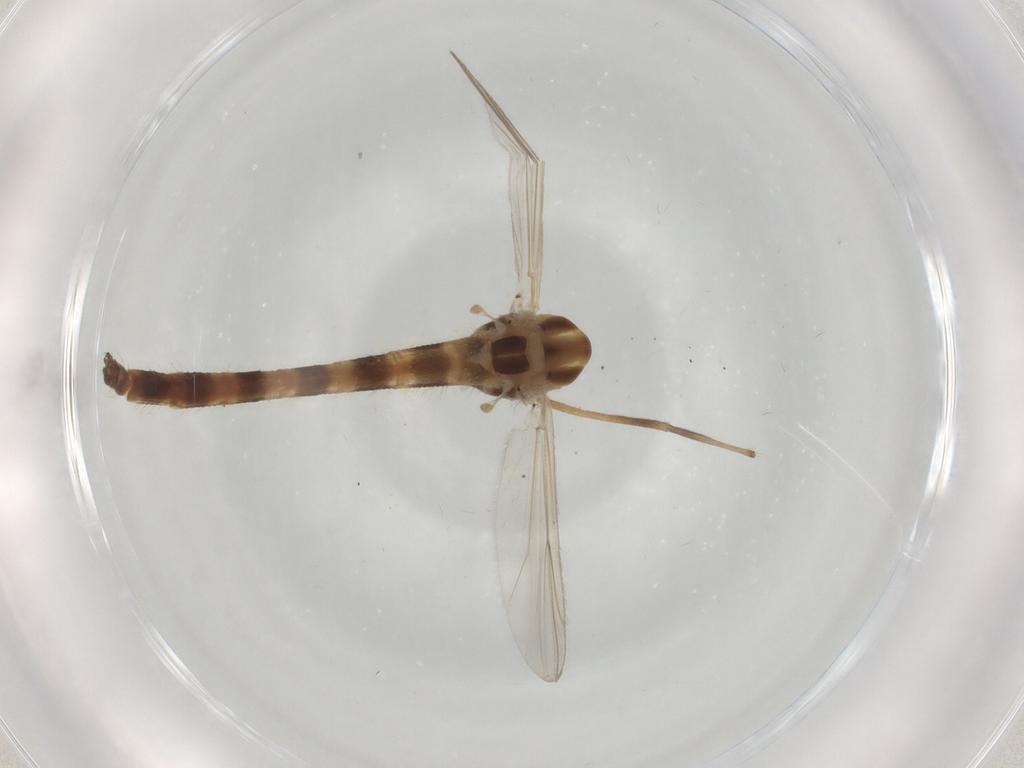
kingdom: Animalia
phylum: Arthropoda
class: Insecta
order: Diptera
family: Chironomidae
